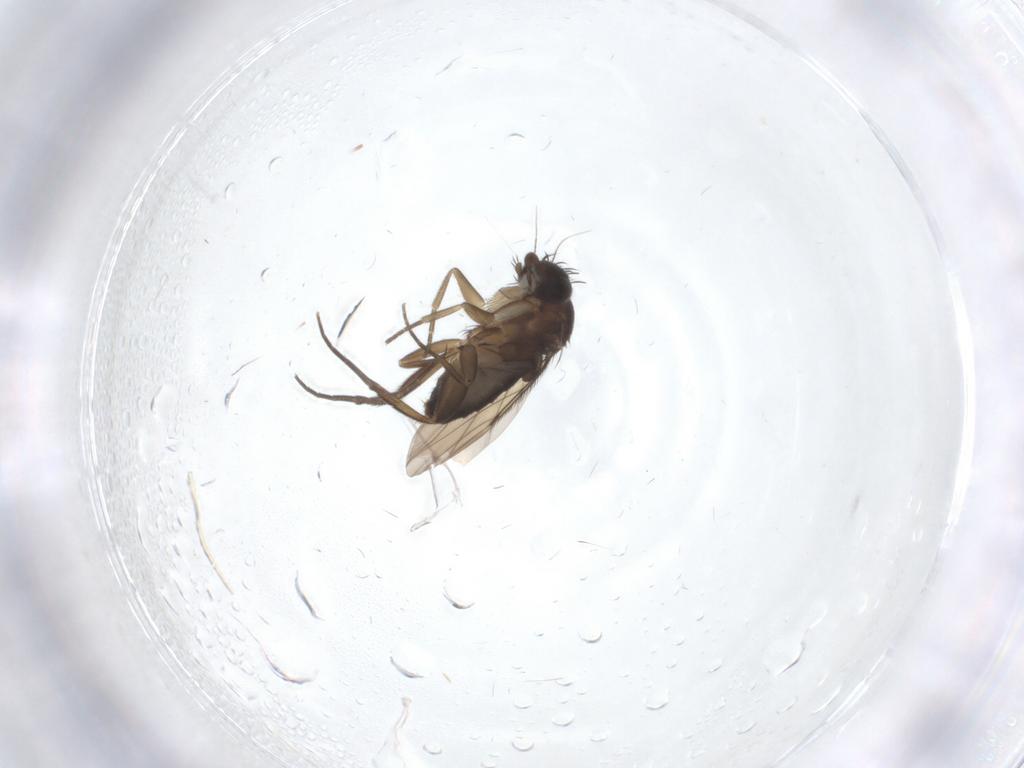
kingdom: Animalia
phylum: Arthropoda
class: Insecta
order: Diptera
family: Phoridae
